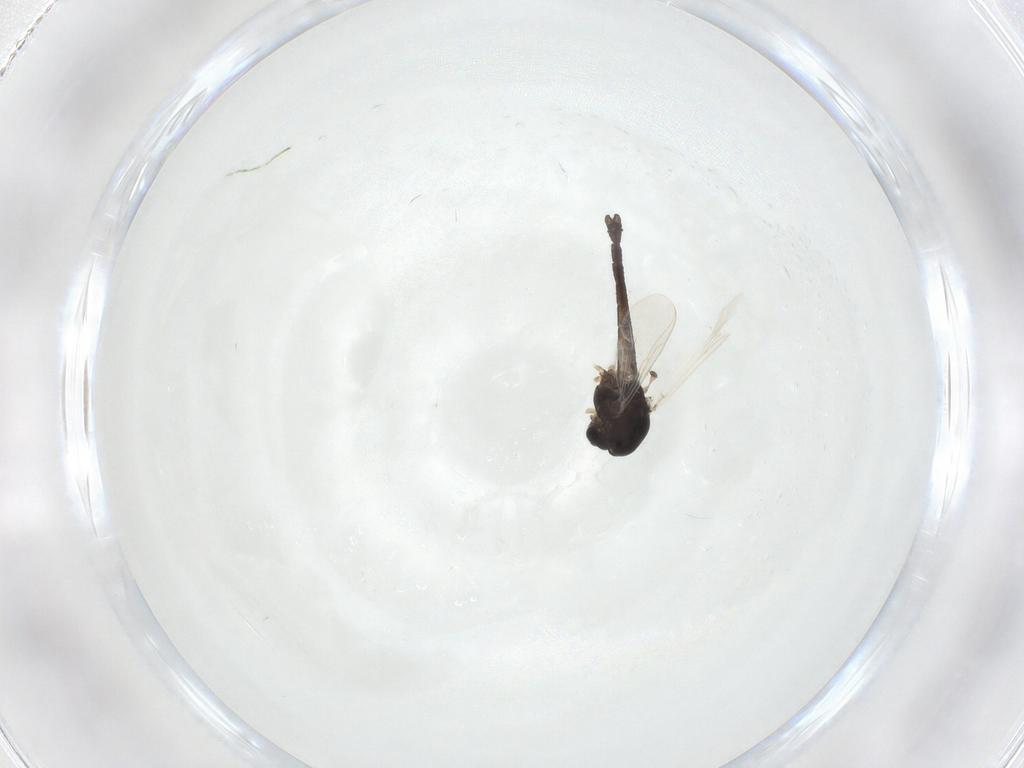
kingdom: Animalia
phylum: Arthropoda
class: Insecta
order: Diptera
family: Chironomidae
